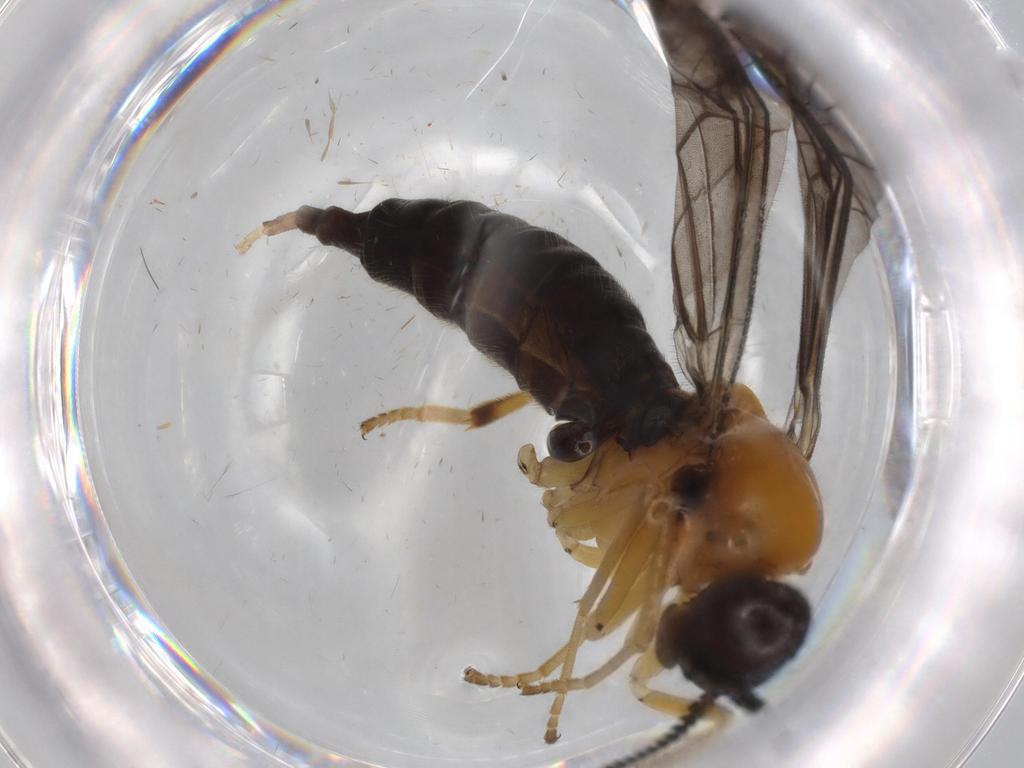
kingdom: Animalia
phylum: Arthropoda
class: Insecta
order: Diptera
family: Xylophagidae
